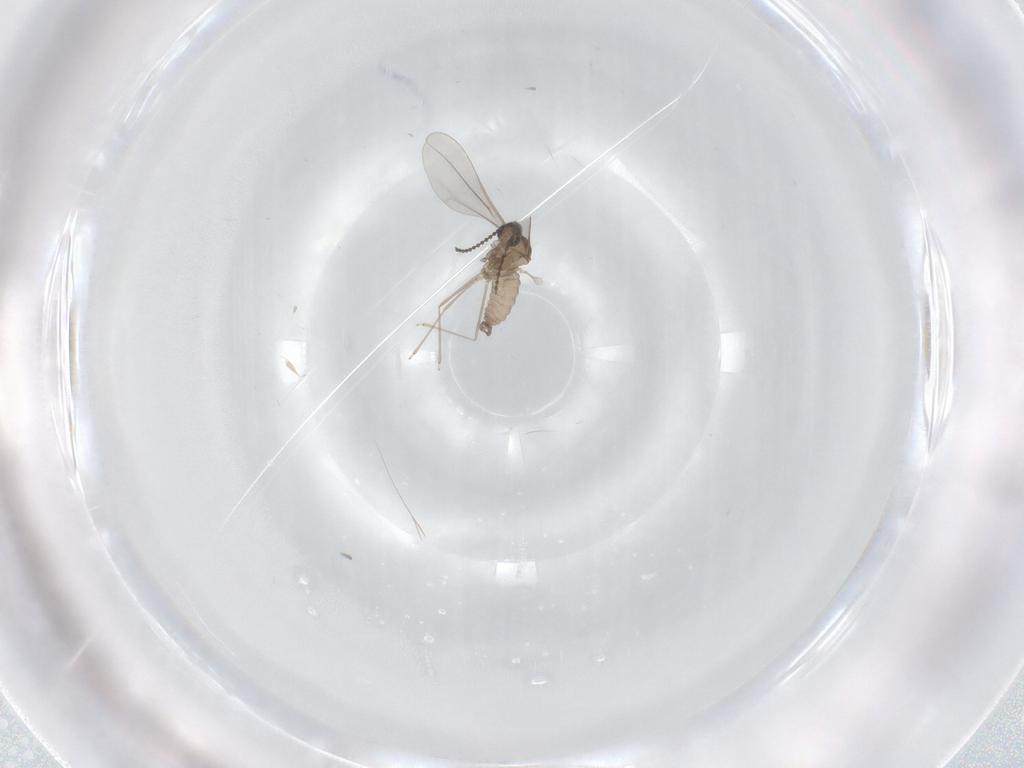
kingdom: Animalia
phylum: Arthropoda
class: Insecta
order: Diptera
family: Cecidomyiidae
